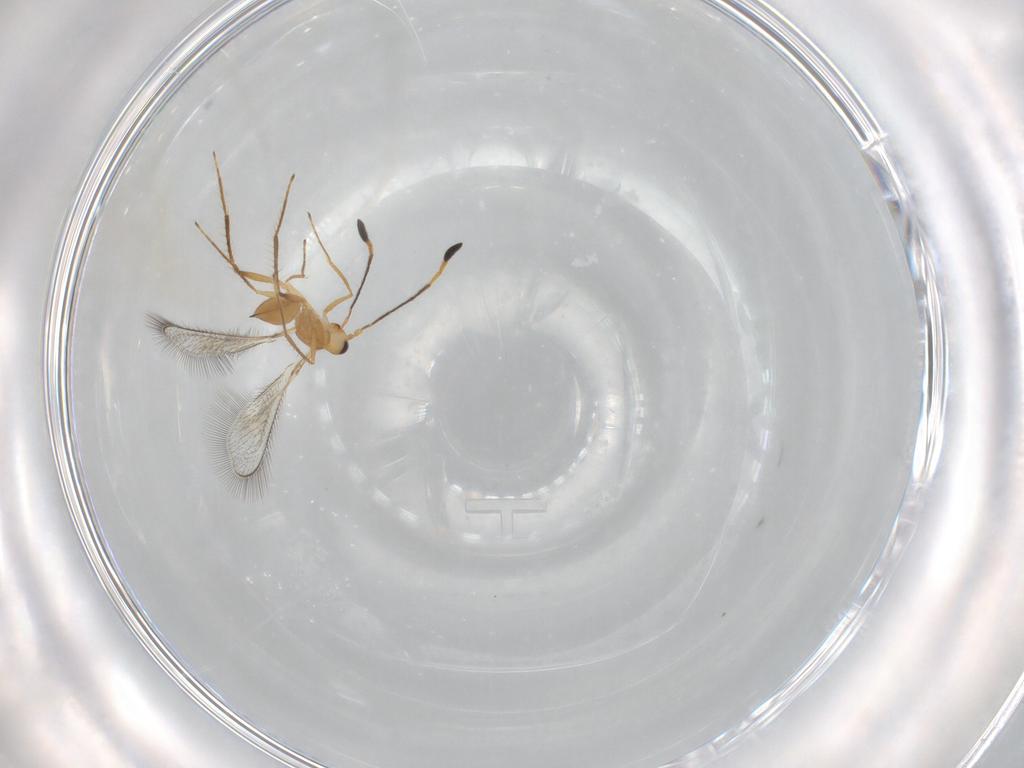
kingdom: Animalia
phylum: Arthropoda
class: Insecta
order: Hymenoptera
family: Mymaridae
